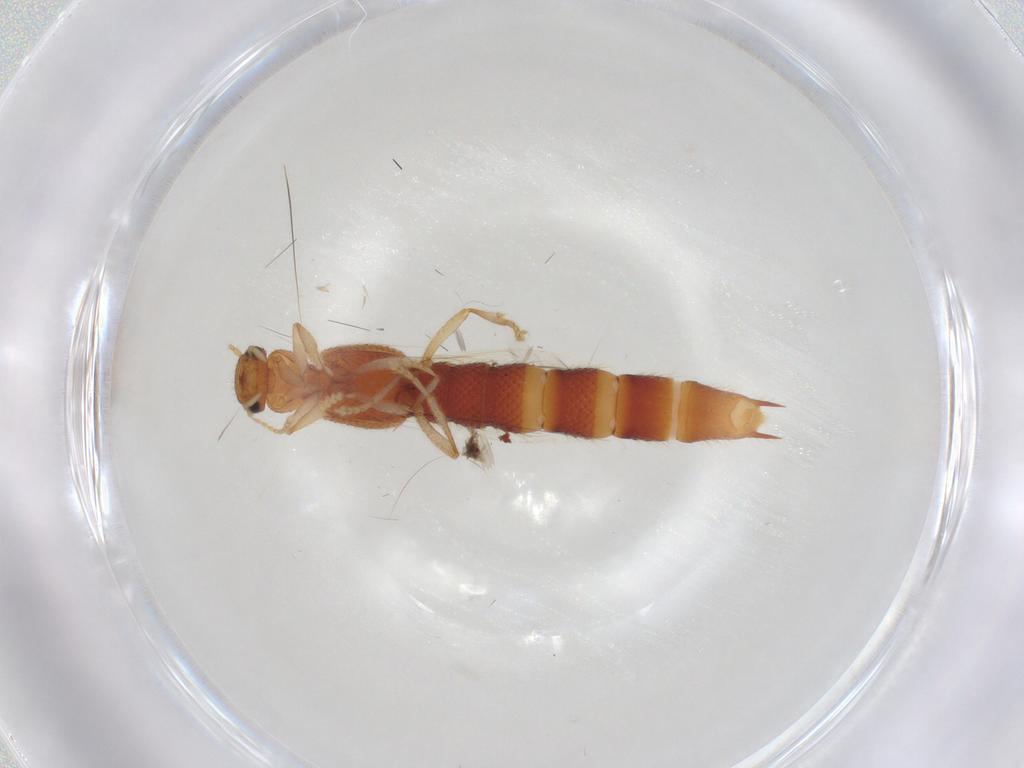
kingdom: Animalia
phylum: Arthropoda
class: Insecta
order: Coleoptera
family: Staphylinidae
